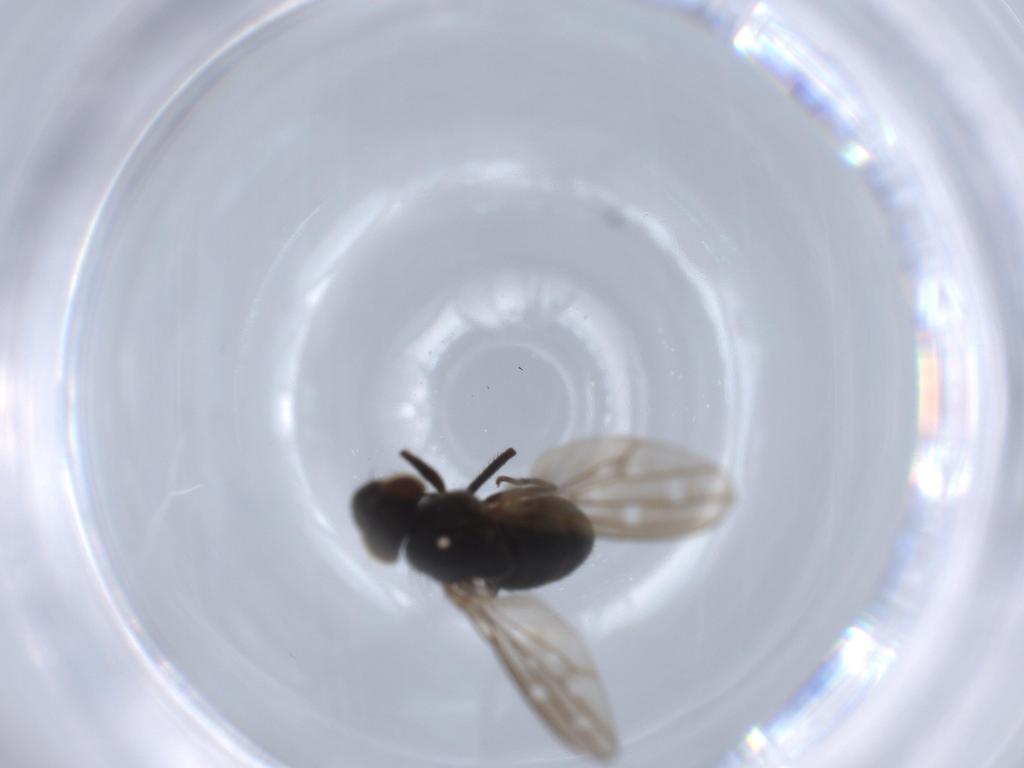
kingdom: Animalia
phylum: Arthropoda
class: Insecta
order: Diptera
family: Ephydridae
